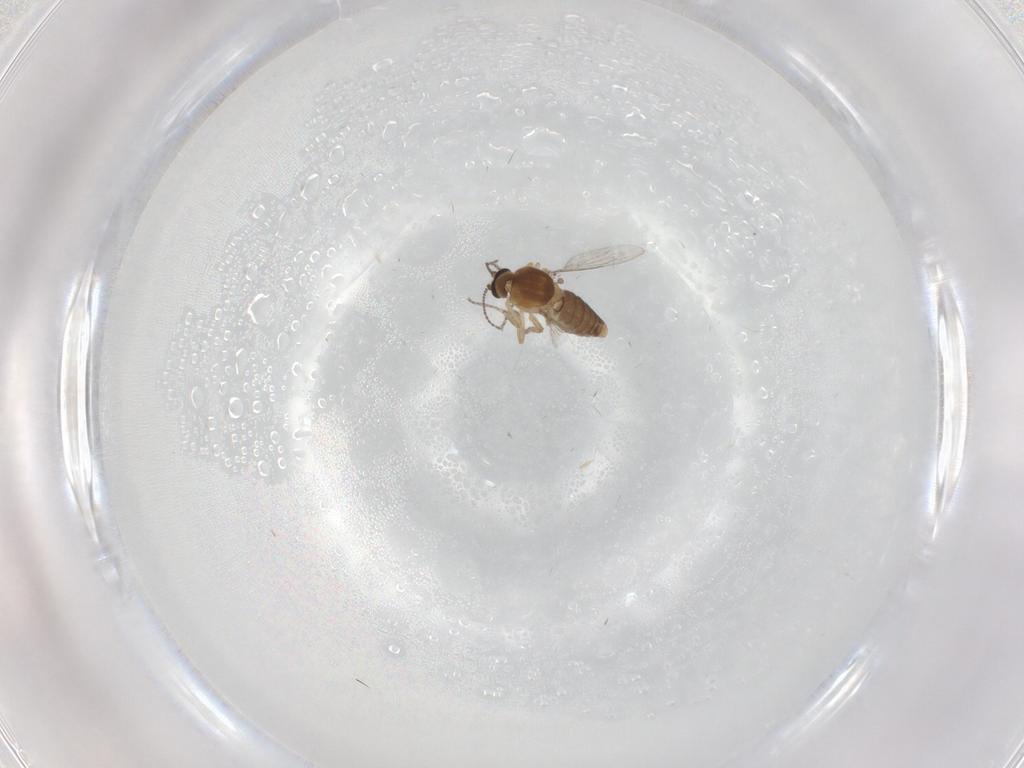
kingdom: Animalia
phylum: Arthropoda
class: Insecta
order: Diptera
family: Ceratopogonidae
